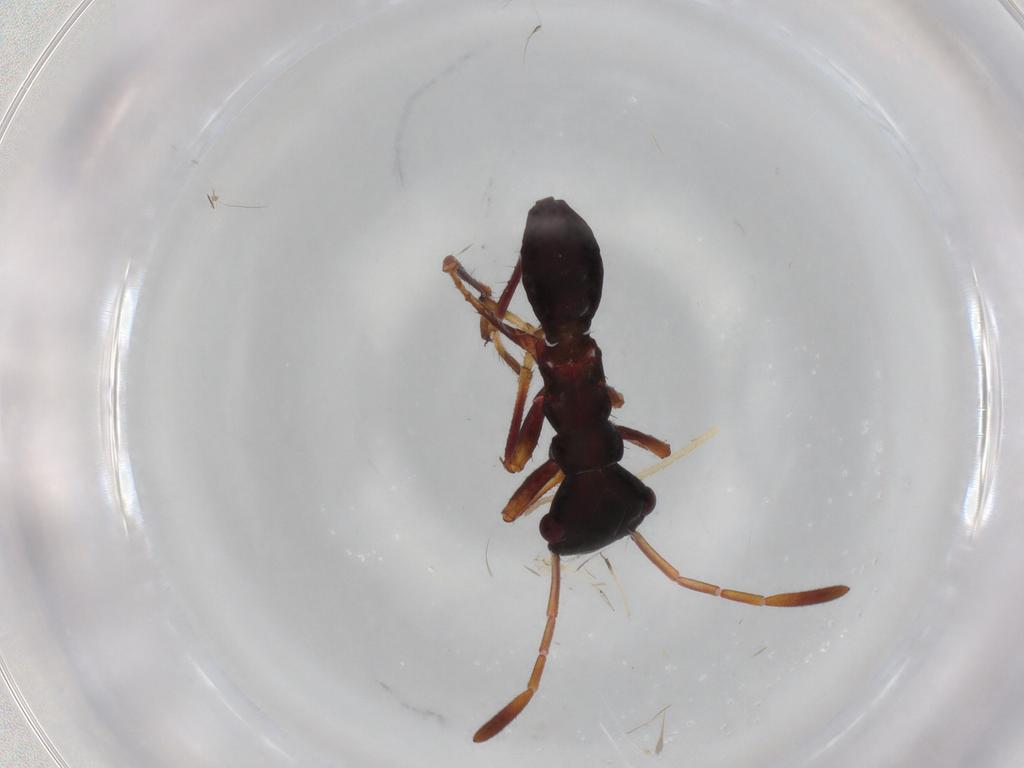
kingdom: Animalia
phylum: Arthropoda
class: Insecta
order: Hemiptera
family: Alydidae
